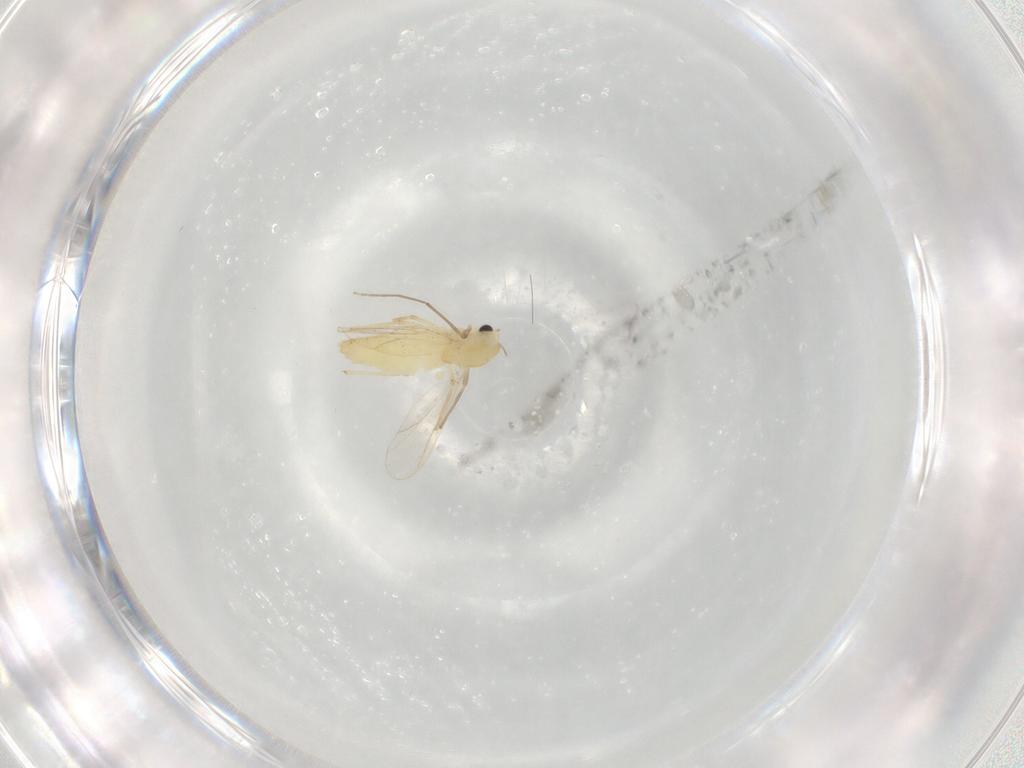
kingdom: Animalia
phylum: Arthropoda
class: Insecta
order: Diptera
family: Chironomidae
